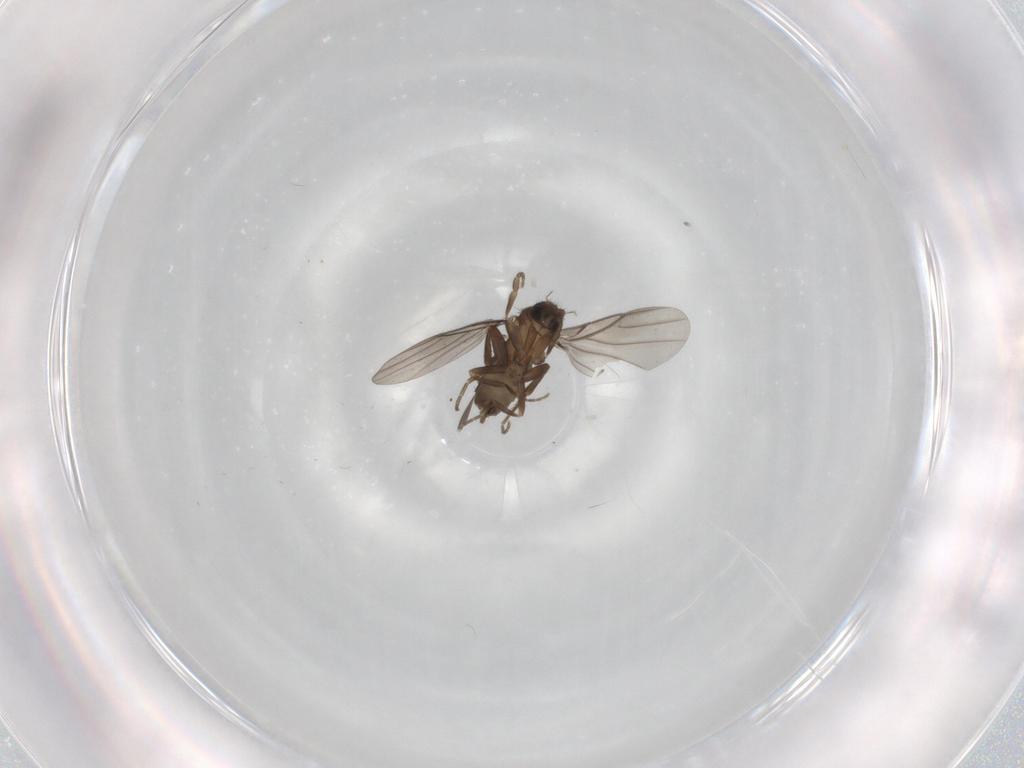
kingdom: Animalia
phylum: Arthropoda
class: Insecta
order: Diptera
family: Phoridae
